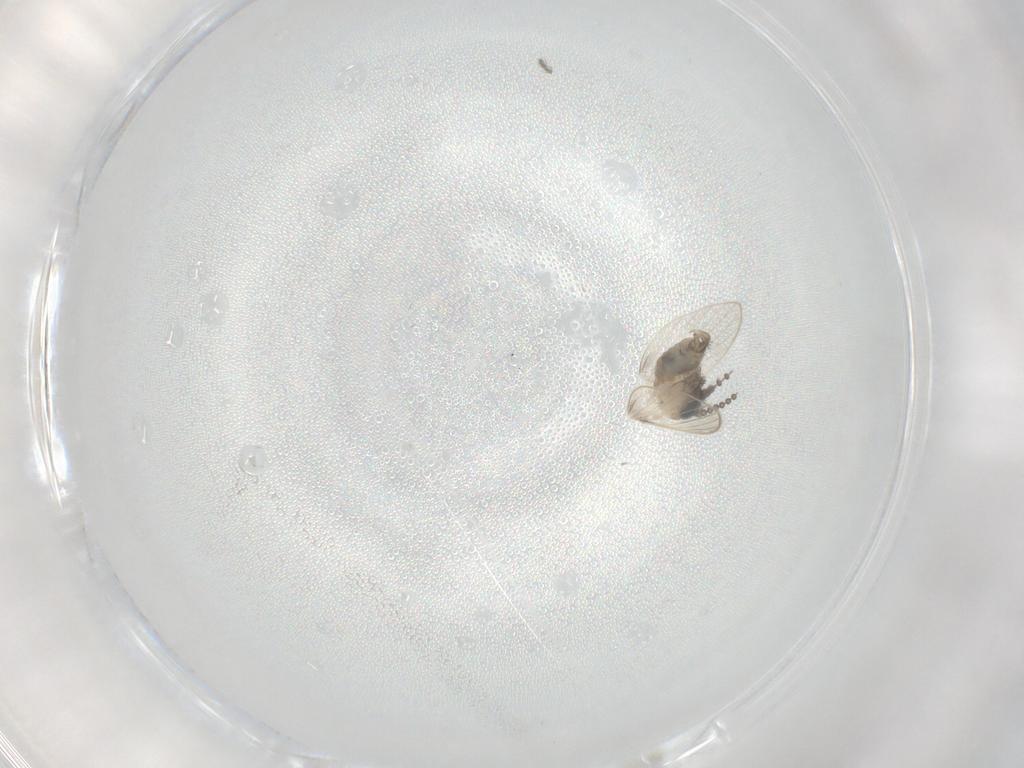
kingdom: Animalia
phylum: Arthropoda
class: Insecta
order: Diptera
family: Psychodidae
